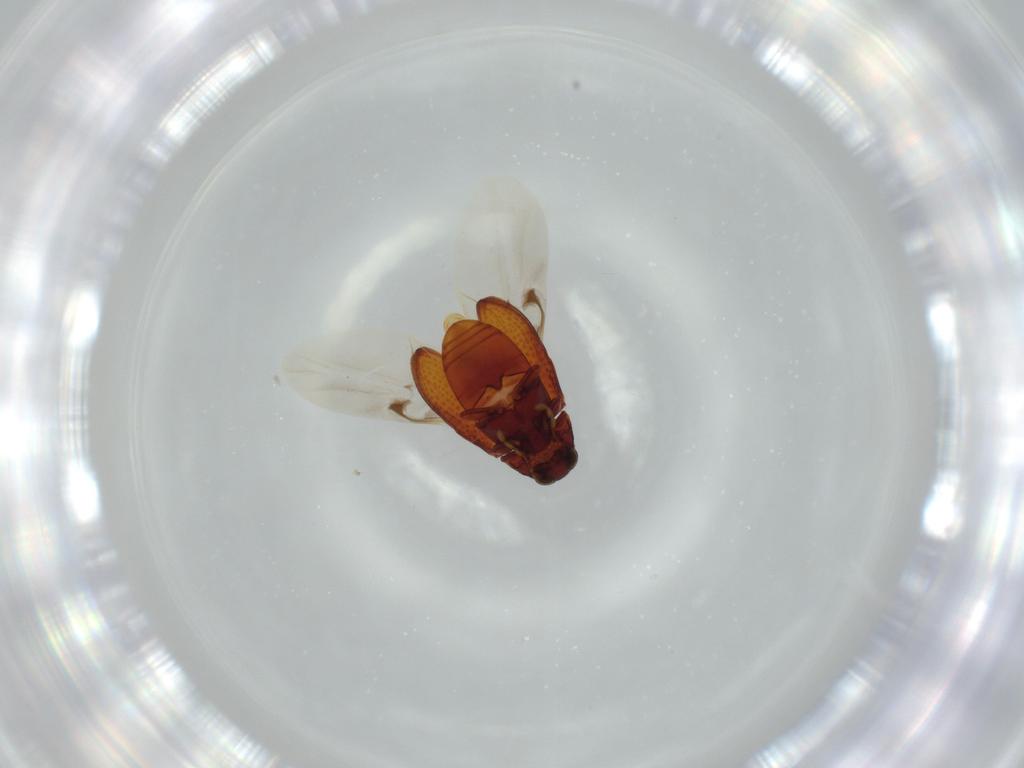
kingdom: Animalia
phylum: Arthropoda
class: Insecta
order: Coleoptera
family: Ptinidae
